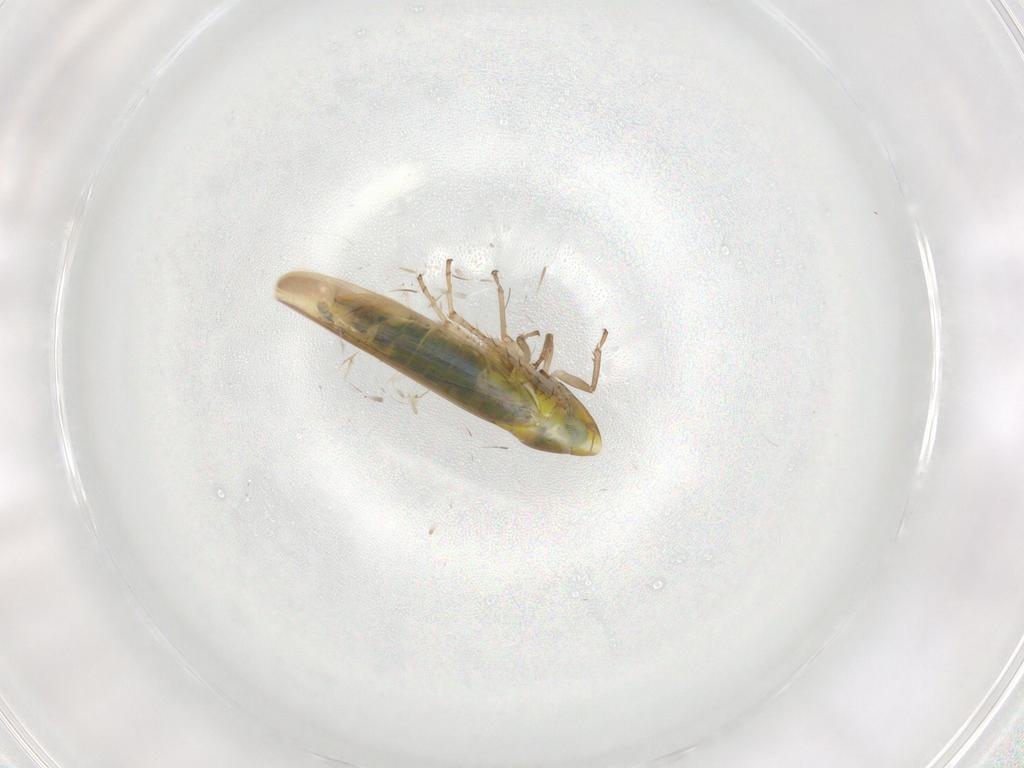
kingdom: Animalia
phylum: Arthropoda
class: Insecta
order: Hemiptera
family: Cicadellidae
